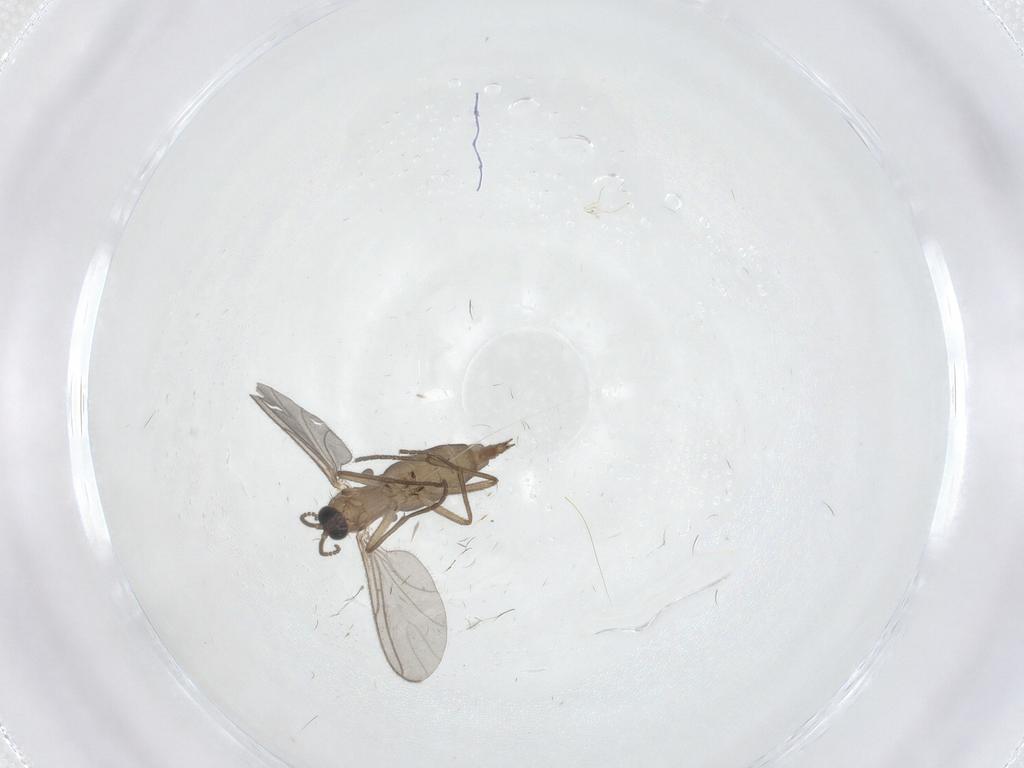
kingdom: Animalia
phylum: Arthropoda
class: Insecta
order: Diptera
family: Sciaridae
